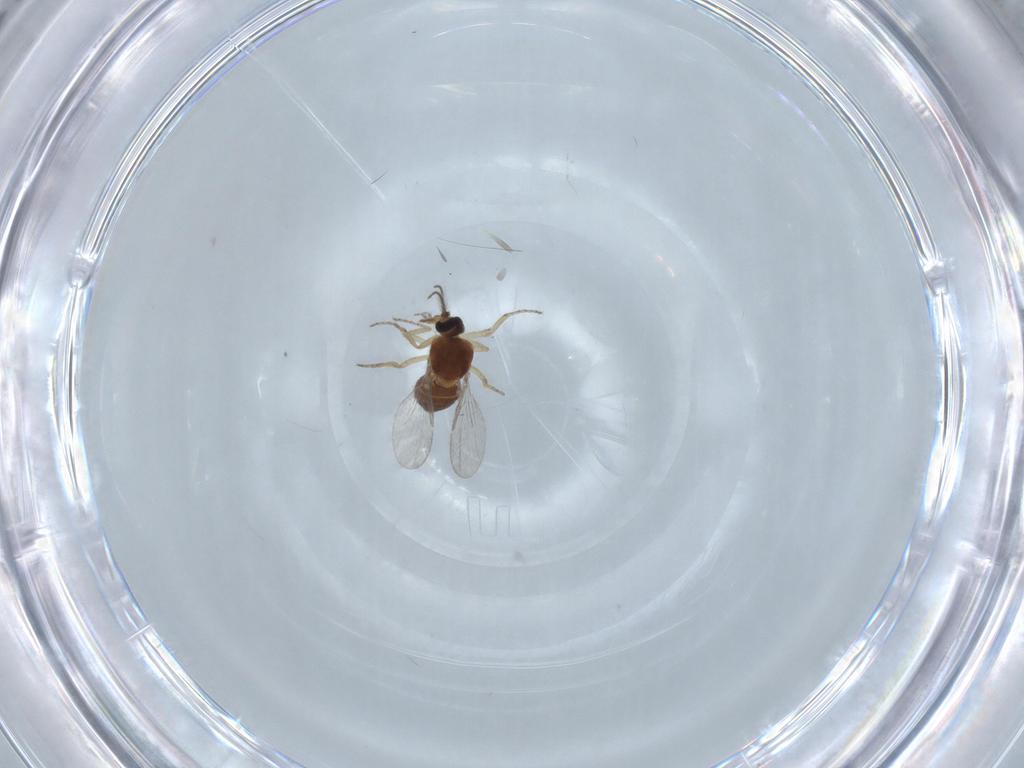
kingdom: Animalia
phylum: Arthropoda
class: Insecta
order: Diptera
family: Ceratopogonidae
